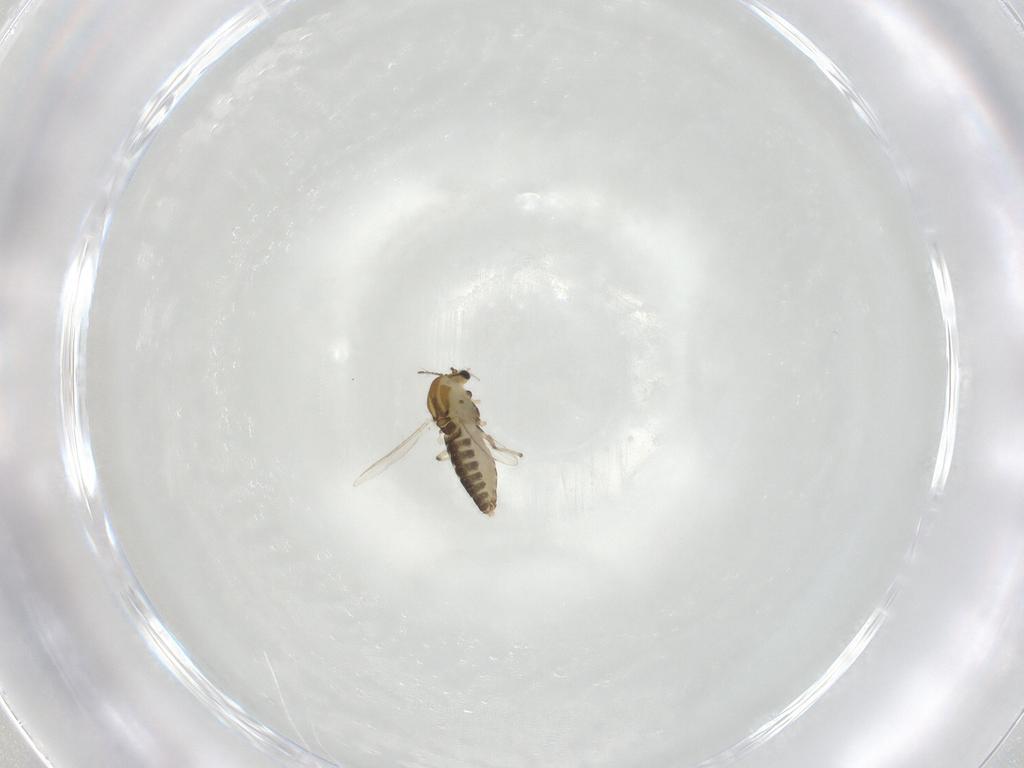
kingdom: Animalia
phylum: Arthropoda
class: Insecta
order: Diptera
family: Chironomidae
